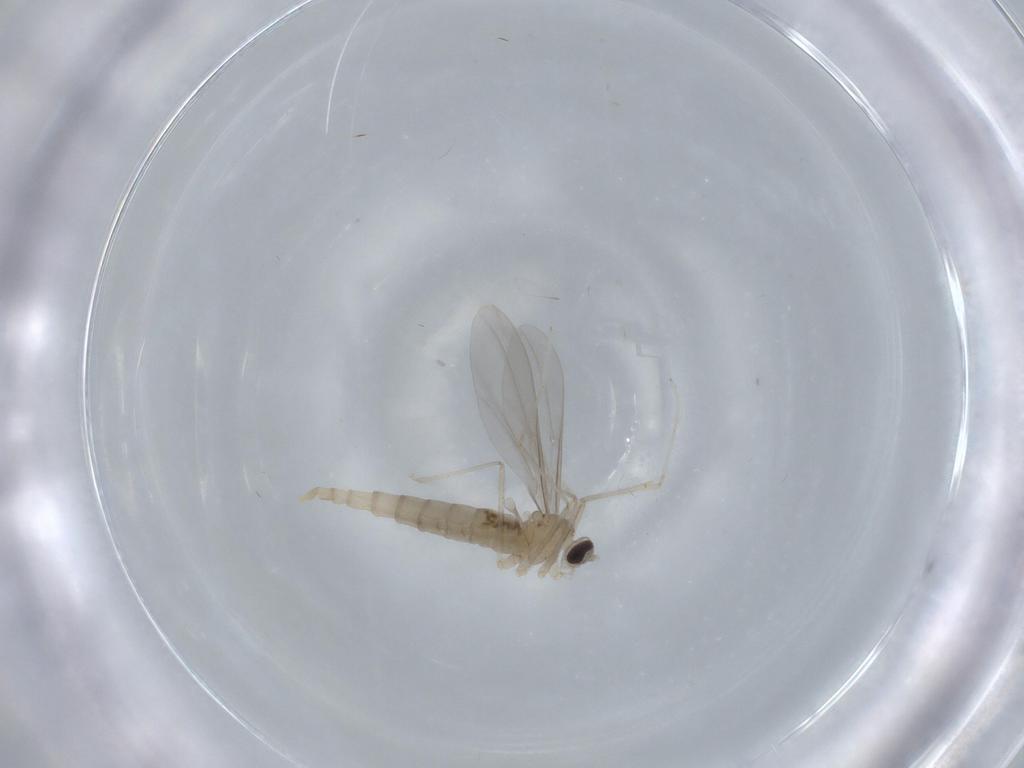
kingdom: Animalia
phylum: Arthropoda
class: Insecta
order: Diptera
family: Cecidomyiidae
